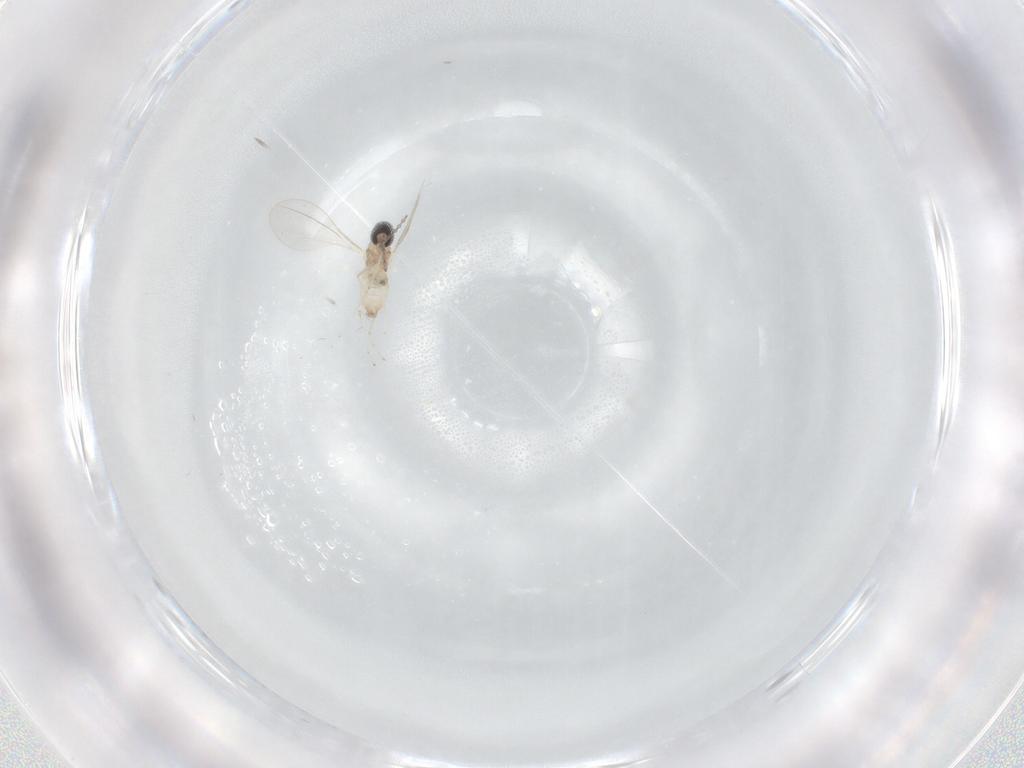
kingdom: Animalia
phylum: Arthropoda
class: Insecta
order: Diptera
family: Cecidomyiidae
